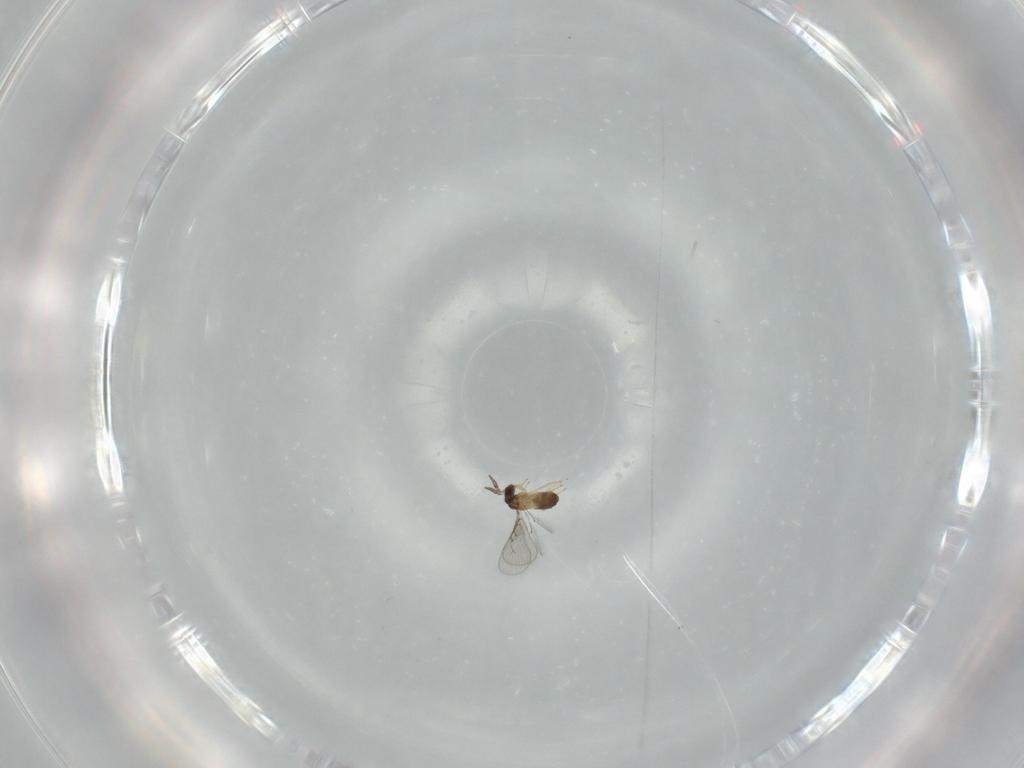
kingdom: Animalia
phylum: Arthropoda
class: Insecta
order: Hymenoptera
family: Trichogrammatidae
